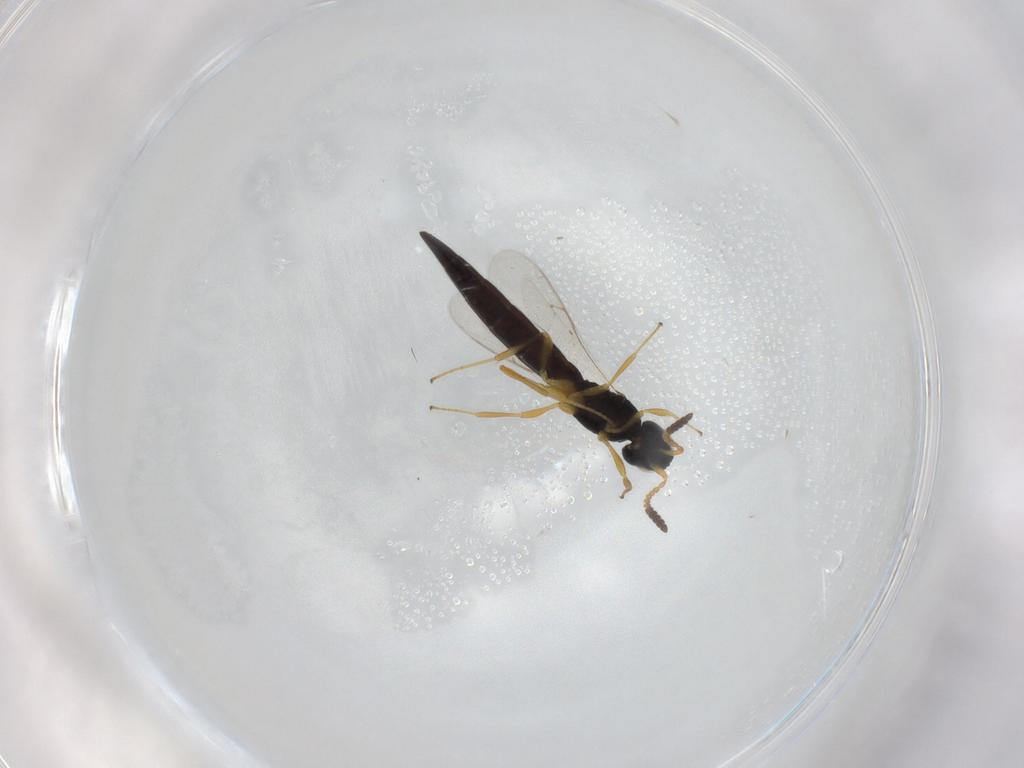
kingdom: Animalia
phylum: Arthropoda
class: Insecta
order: Hymenoptera
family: Scelionidae
